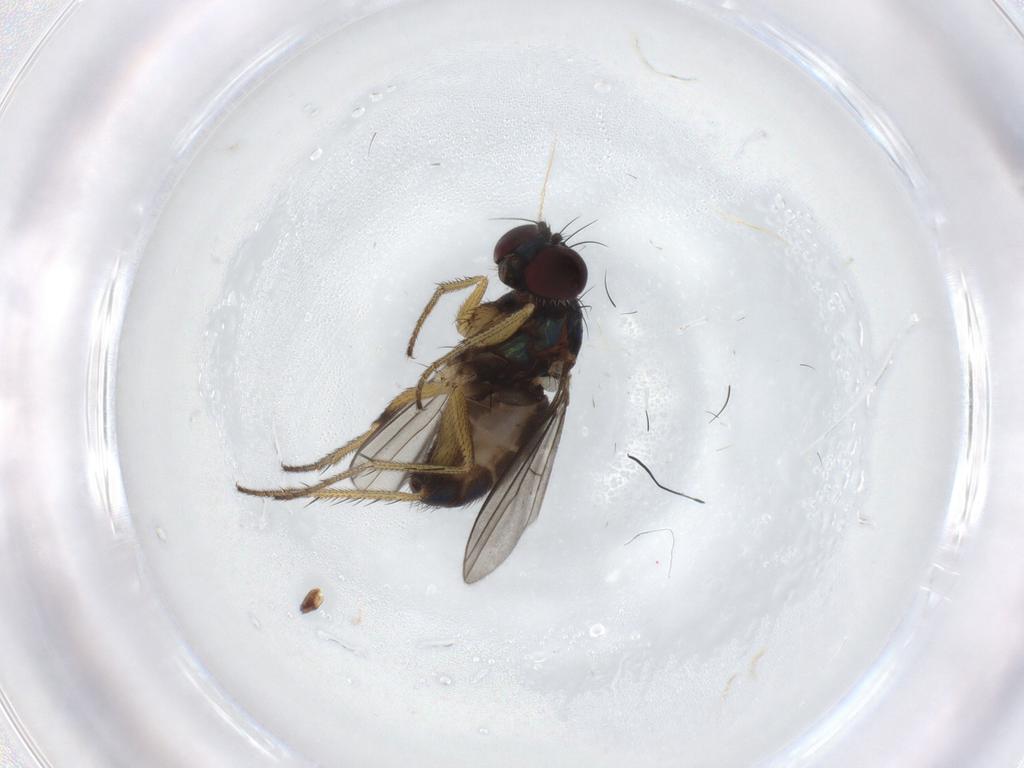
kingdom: Animalia
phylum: Arthropoda
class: Insecta
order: Diptera
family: Dolichopodidae
